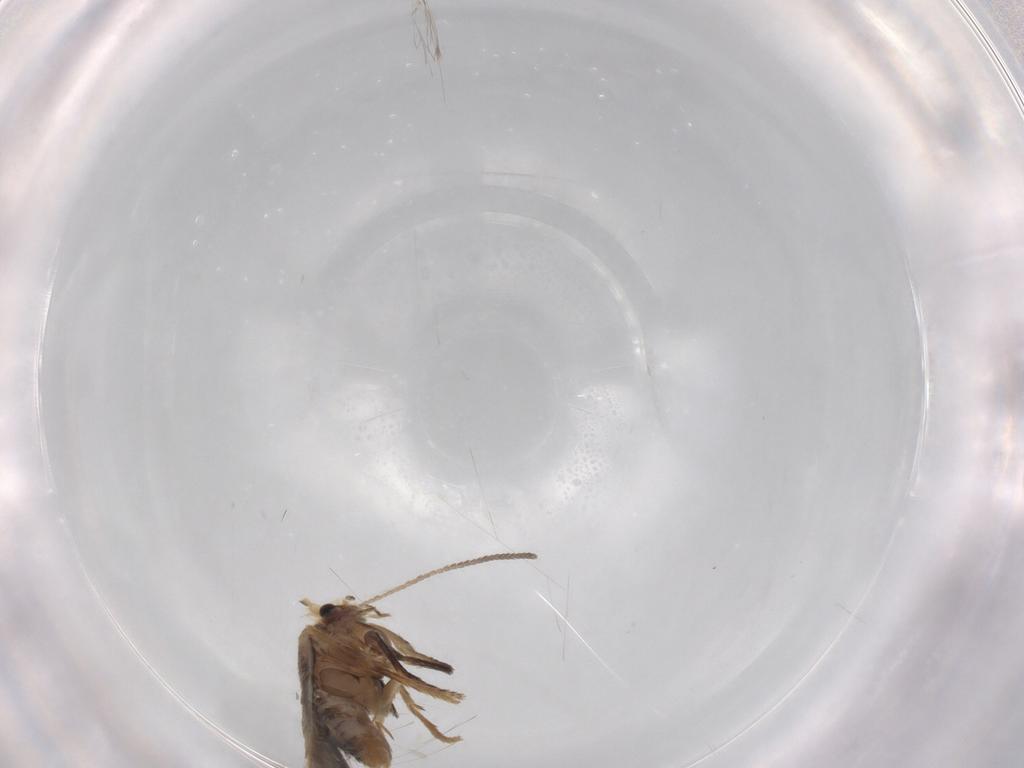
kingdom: Animalia
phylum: Arthropoda
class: Insecta
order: Lepidoptera
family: Nepticulidae
